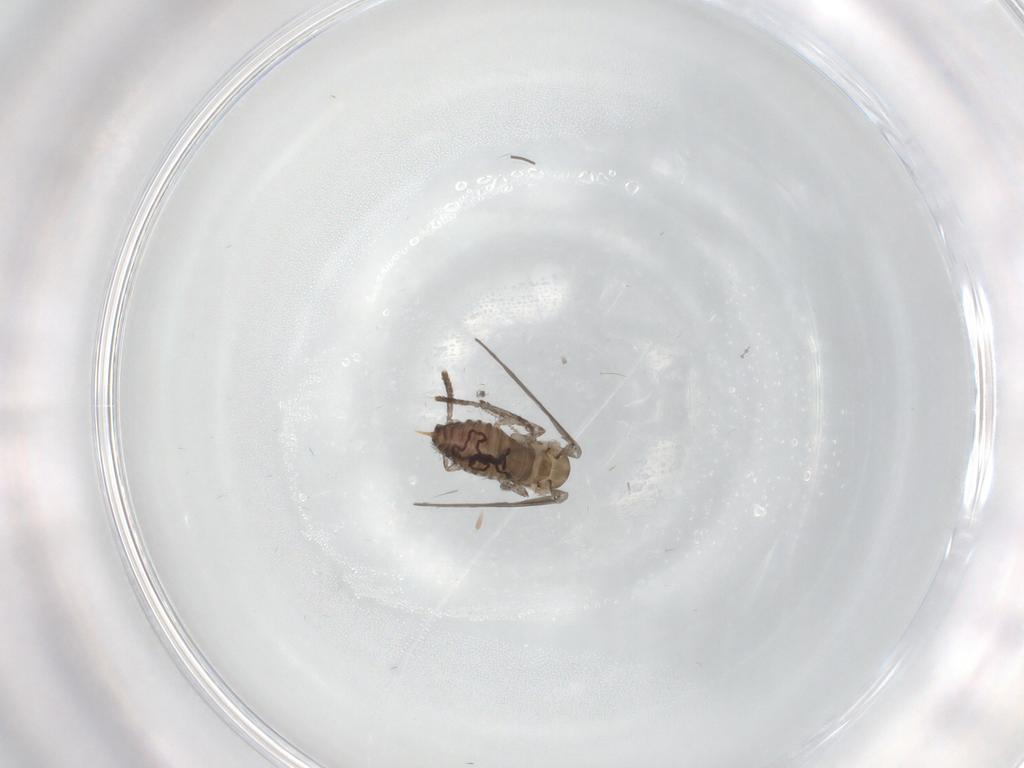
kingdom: Animalia
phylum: Arthropoda
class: Insecta
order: Diptera
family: Psychodidae
